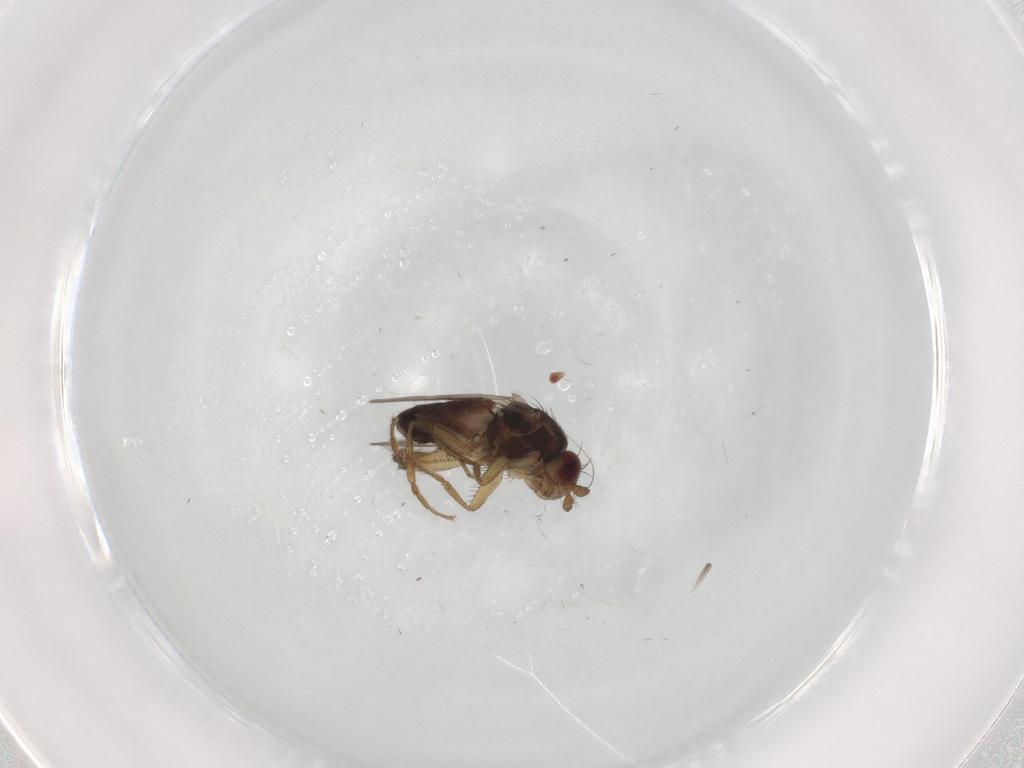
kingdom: Animalia
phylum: Arthropoda
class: Insecta
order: Diptera
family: Sphaeroceridae
